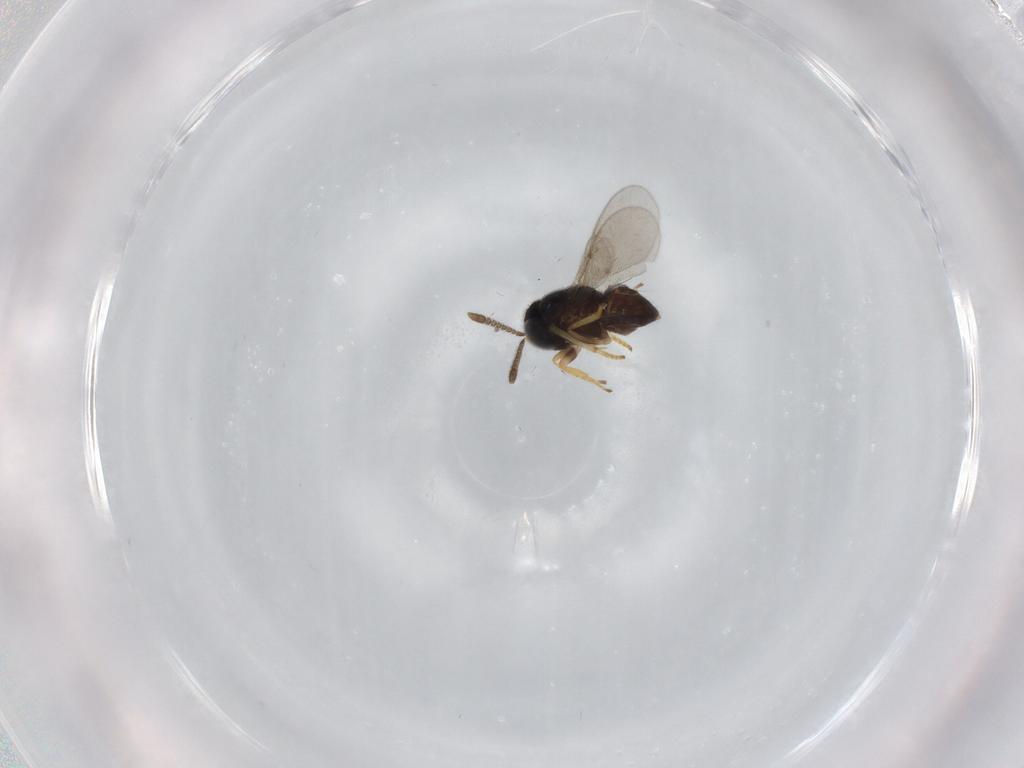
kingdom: Animalia
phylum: Arthropoda
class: Insecta
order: Hymenoptera
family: Encyrtidae
